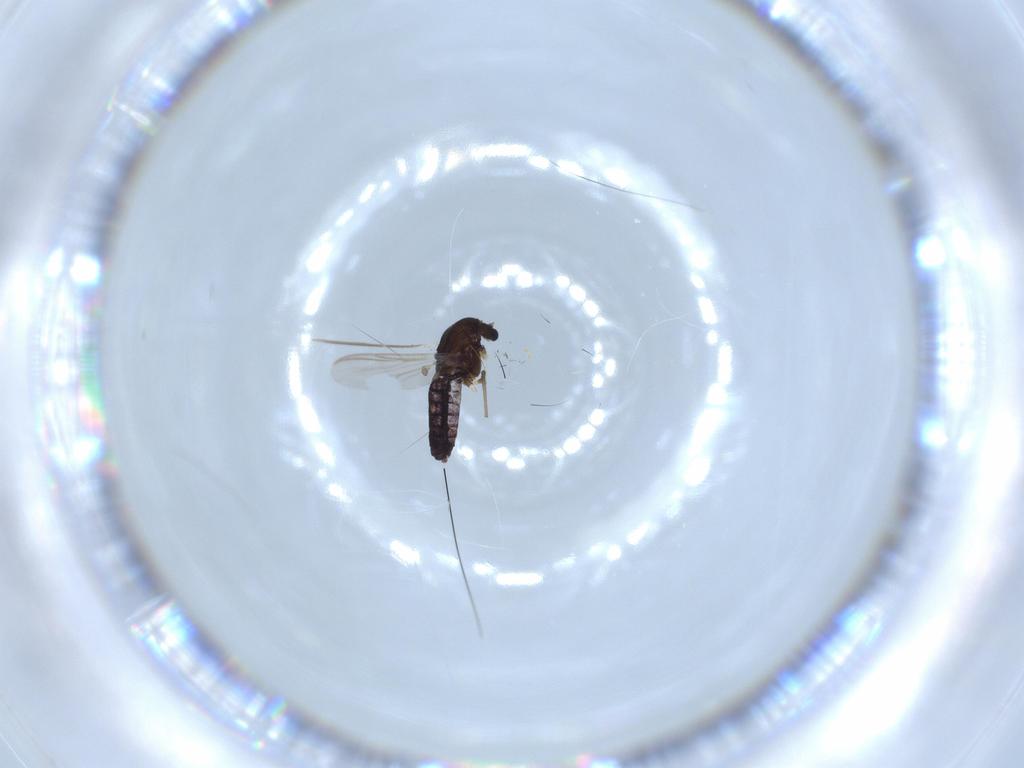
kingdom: Animalia
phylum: Arthropoda
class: Insecta
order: Diptera
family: Chironomidae
